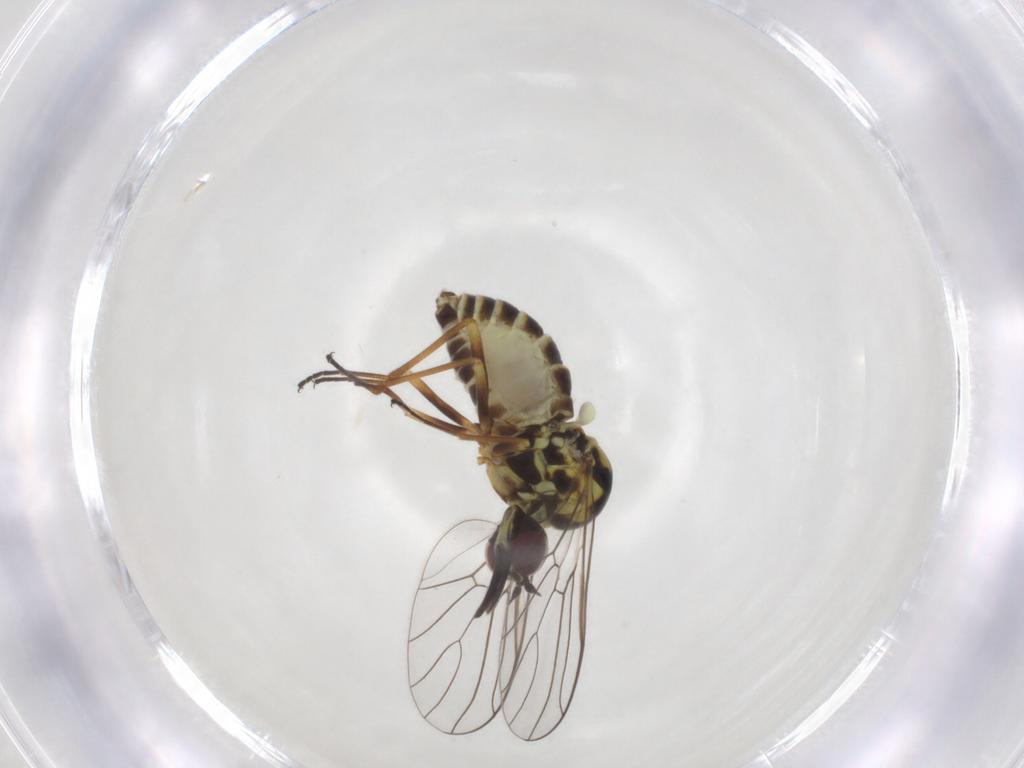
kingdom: Animalia
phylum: Arthropoda
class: Insecta
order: Diptera
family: Bombyliidae
